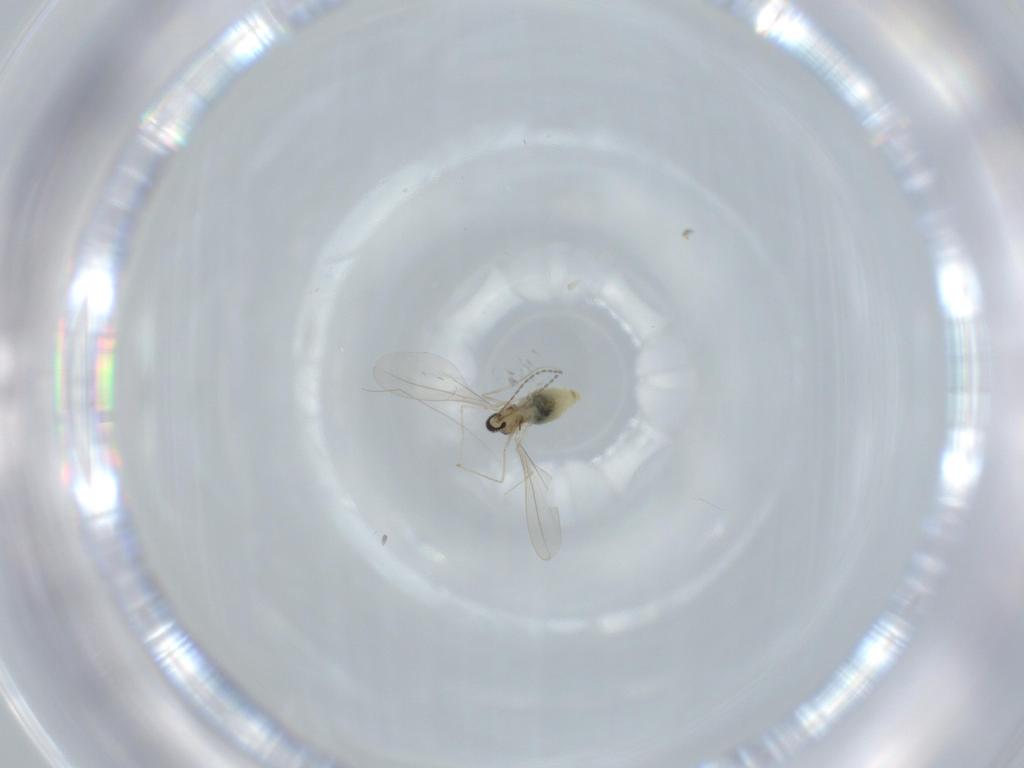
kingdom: Animalia
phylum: Arthropoda
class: Insecta
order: Diptera
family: Cecidomyiidae
